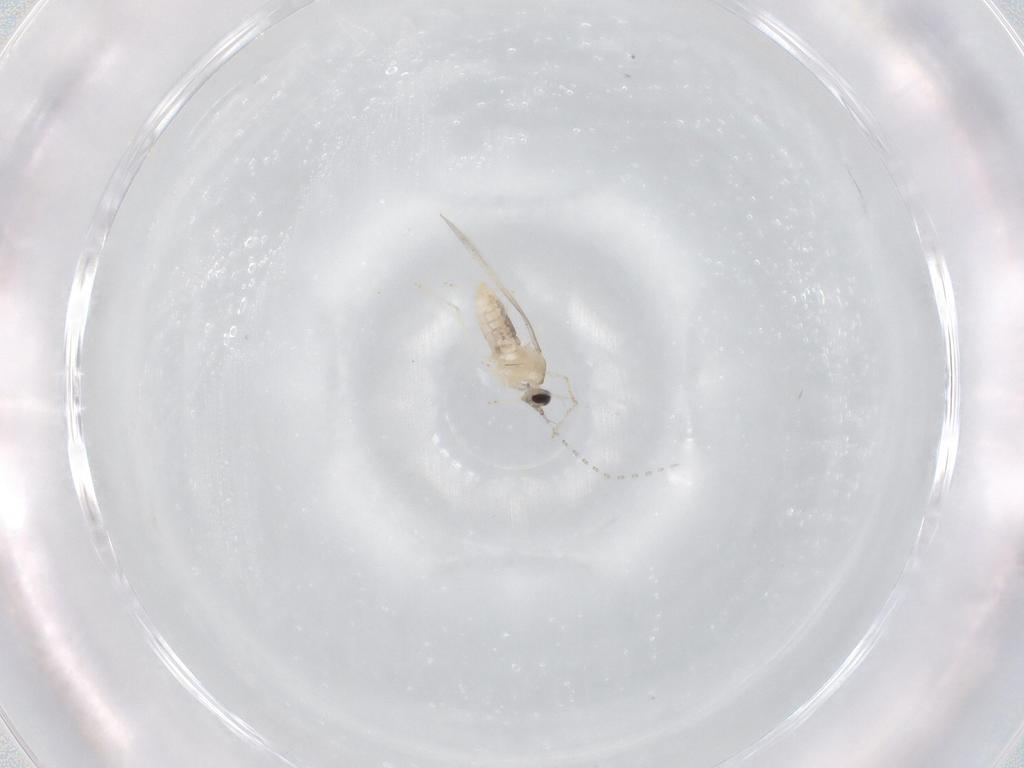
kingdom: Animalia
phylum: Arthropoda
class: Insecta
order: Diptera
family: Cecidomyiidae
